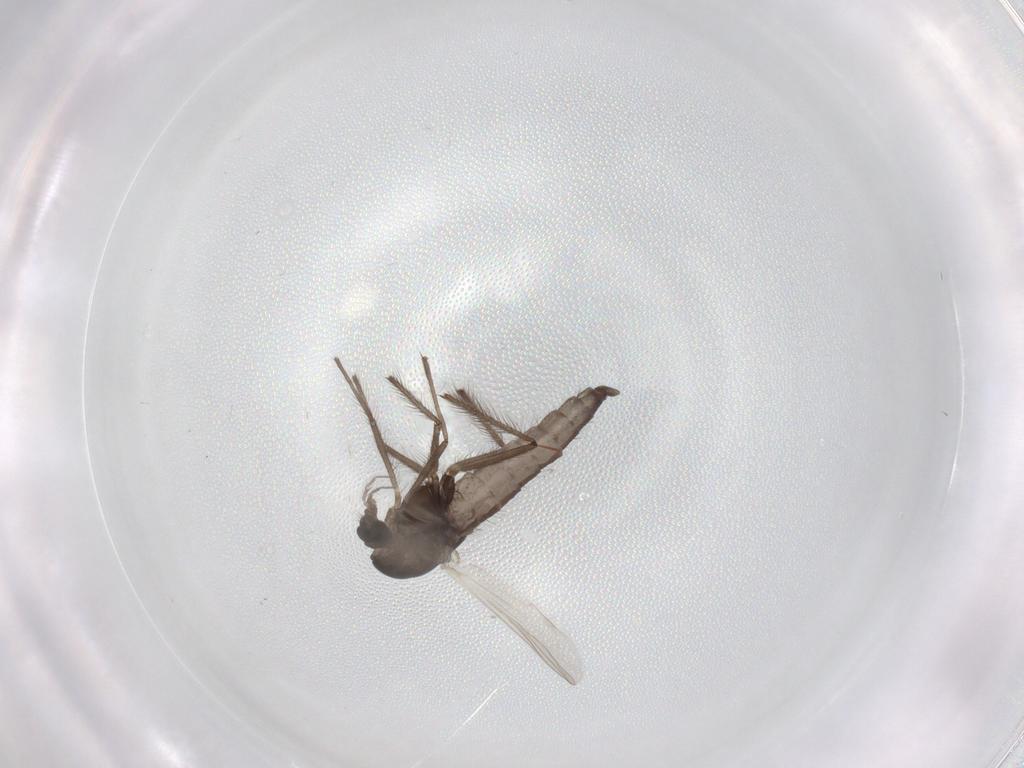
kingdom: Animalia
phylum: Arthropoda
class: Insecta
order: Diptera
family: Chironomidae
